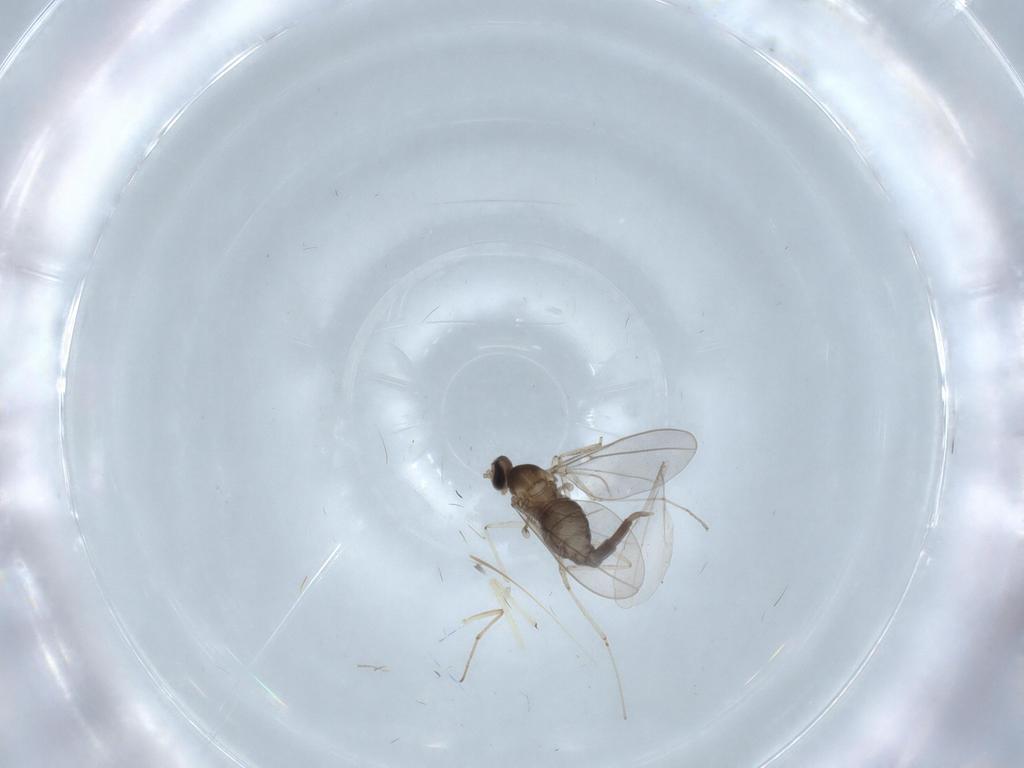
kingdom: Animalia
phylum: Arthropoda
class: Insecta
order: Diptera
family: Cecidomyiidae
